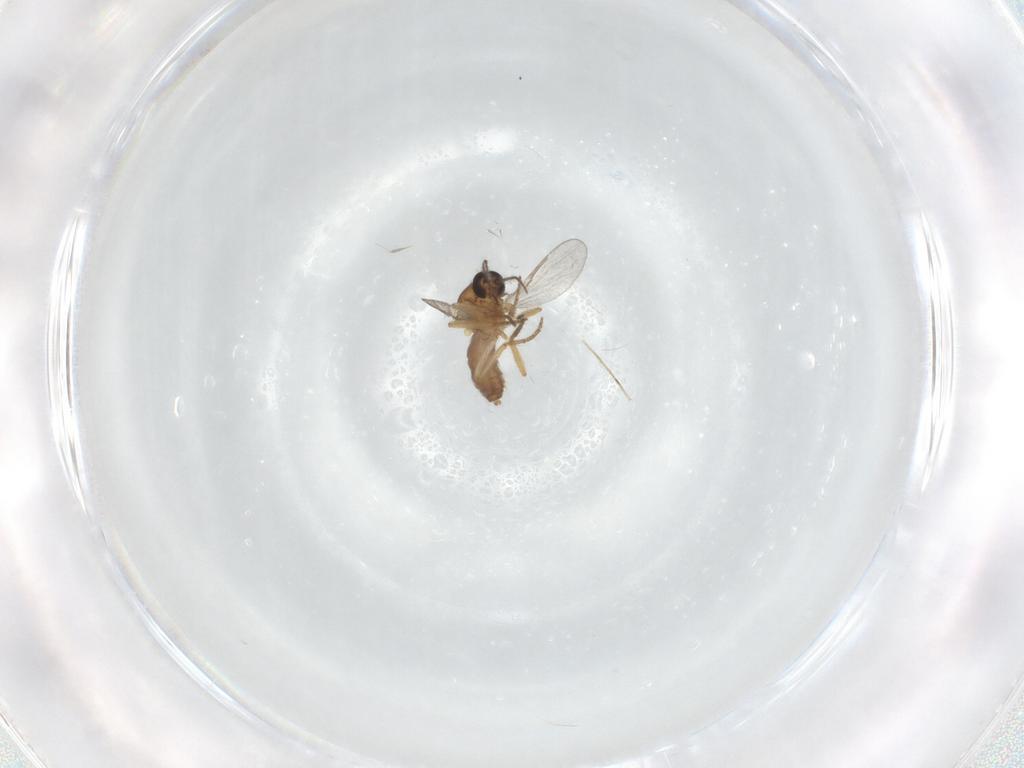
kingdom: Animalia
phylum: Arthropoda
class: Insecta
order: Diptera
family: Ceratopogonidae
